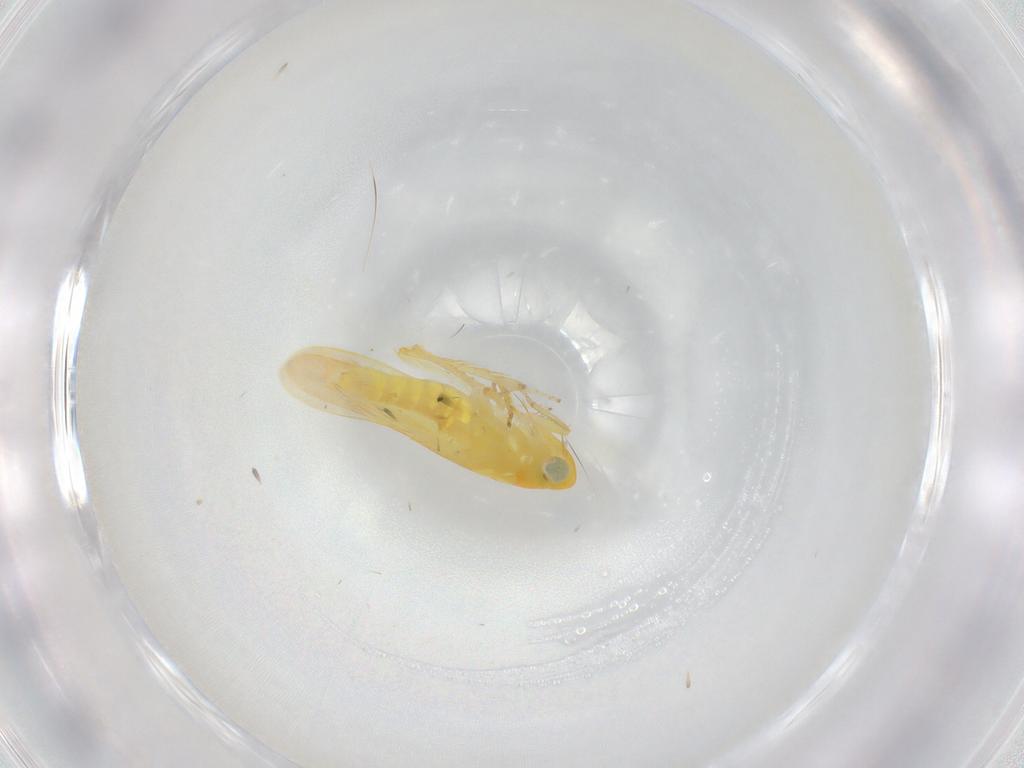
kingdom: Animalia
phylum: Arthropoda
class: Insecta
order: Hemiptera
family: Cicadellidae
